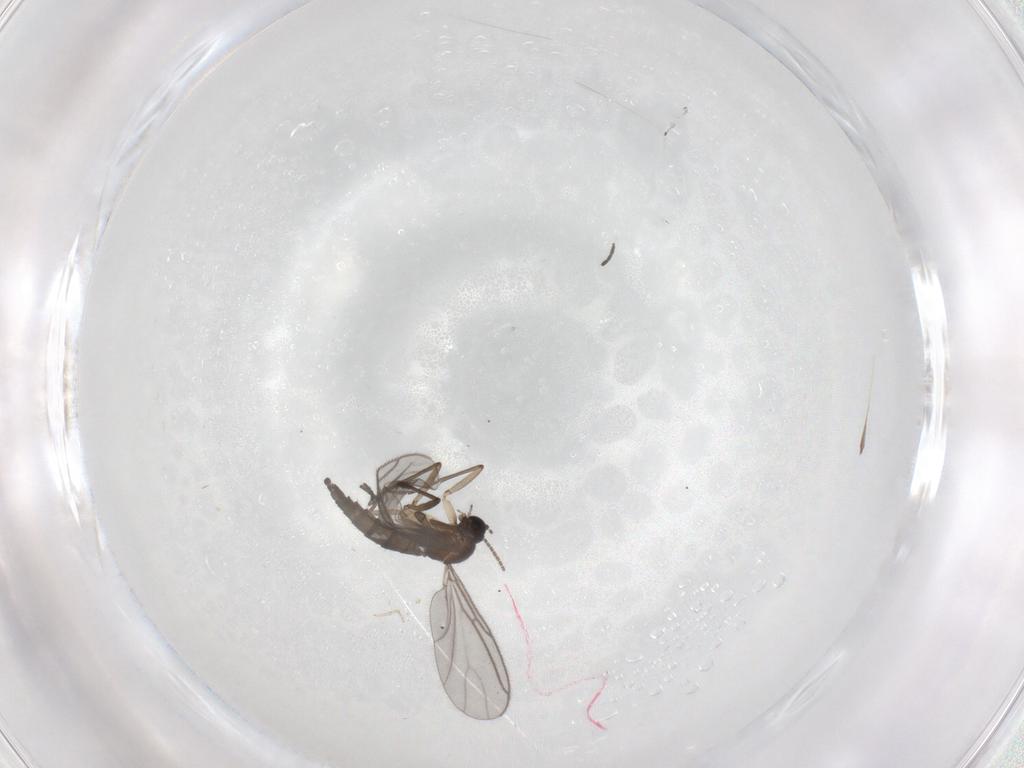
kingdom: Animalia
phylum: Arthropoda
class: Insecta
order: Diptera
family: Sciaridae
